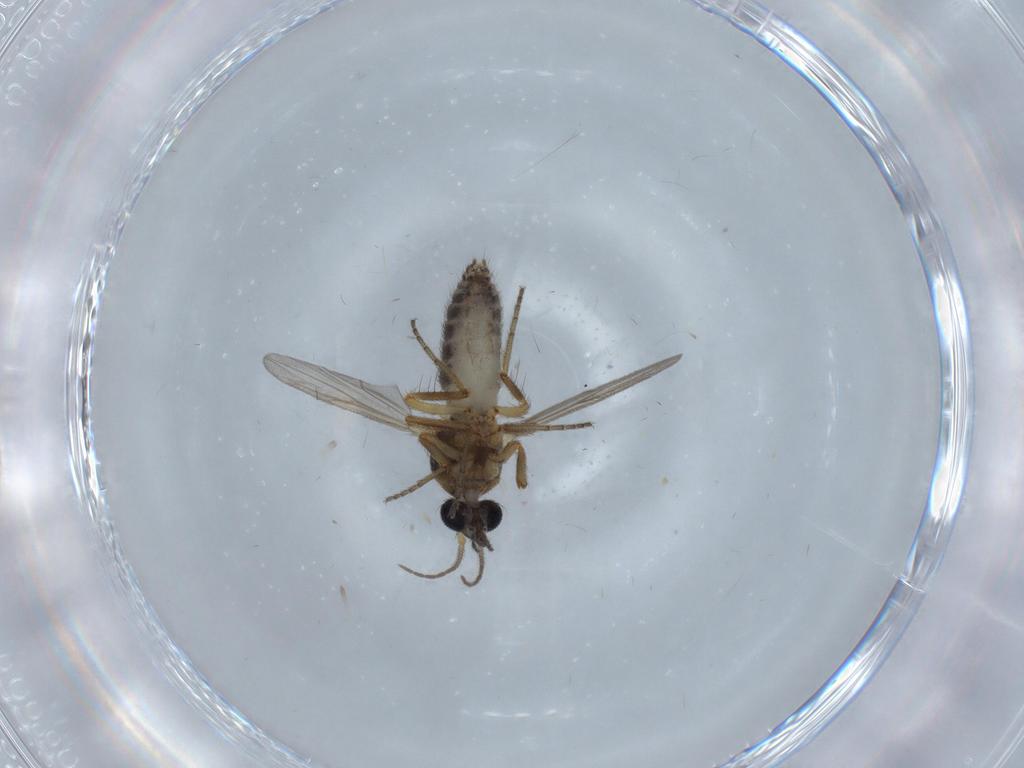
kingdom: Animalia
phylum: Arthropoda
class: Insecta
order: Diptera
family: Chironomidae
